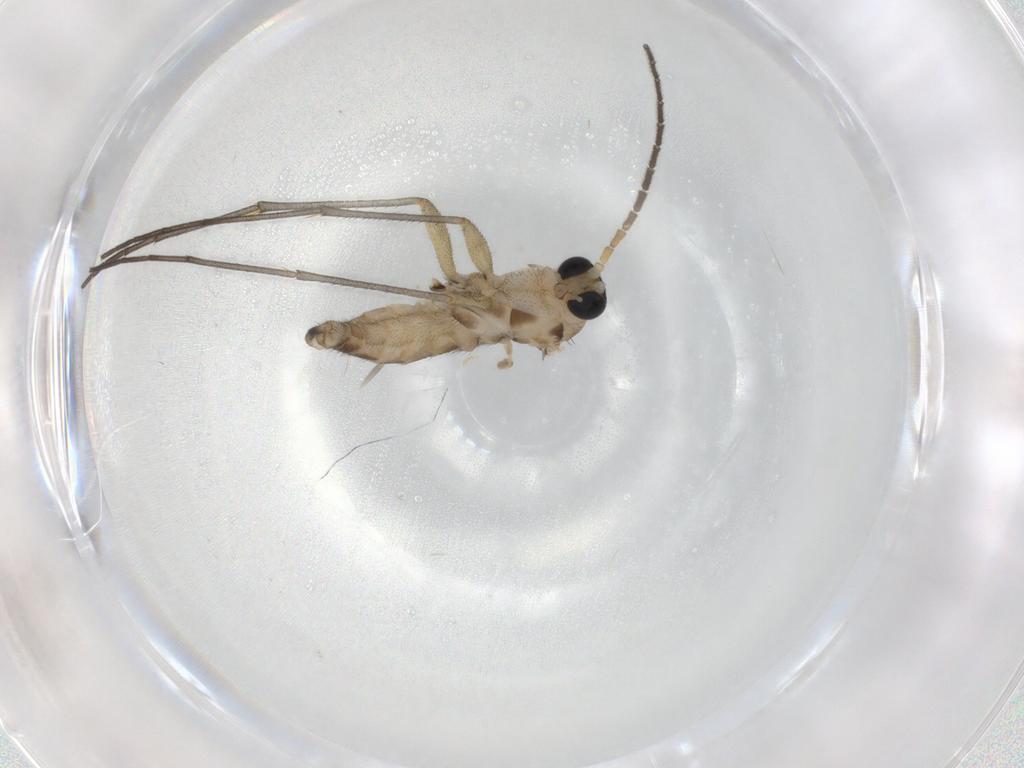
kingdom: Animalia
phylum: Arthropoda
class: Insecta
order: Diptera
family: Sciaridae
